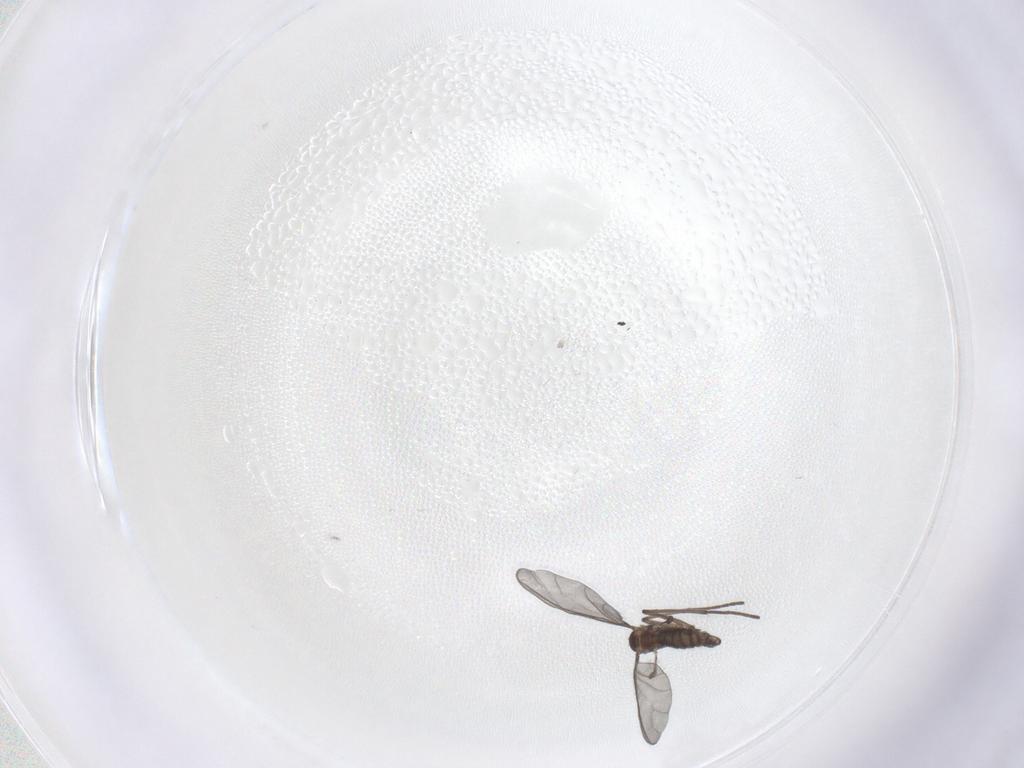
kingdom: Animalia
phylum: Arthropoda
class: Insecta
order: Diptera
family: Sciaridae
